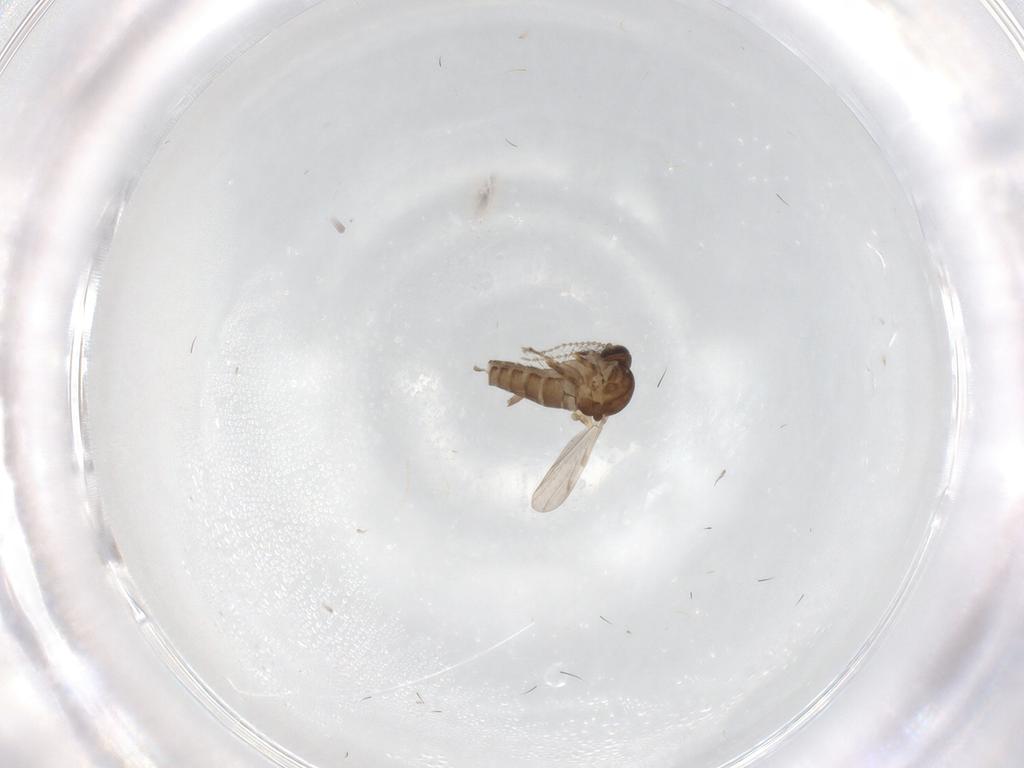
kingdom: Animalia
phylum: Arthropoda
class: Insecta
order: Diptera
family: Ceratopogonidae
